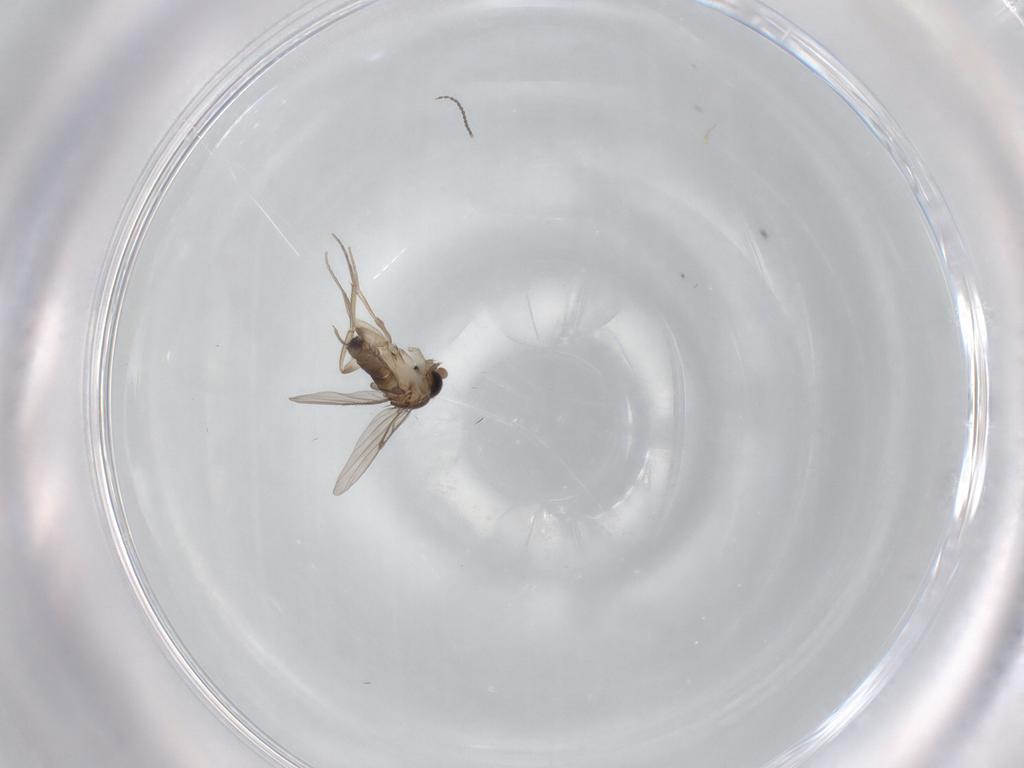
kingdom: Animalia
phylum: Arthropoda
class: Insecta
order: Diptera
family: Phoridae
